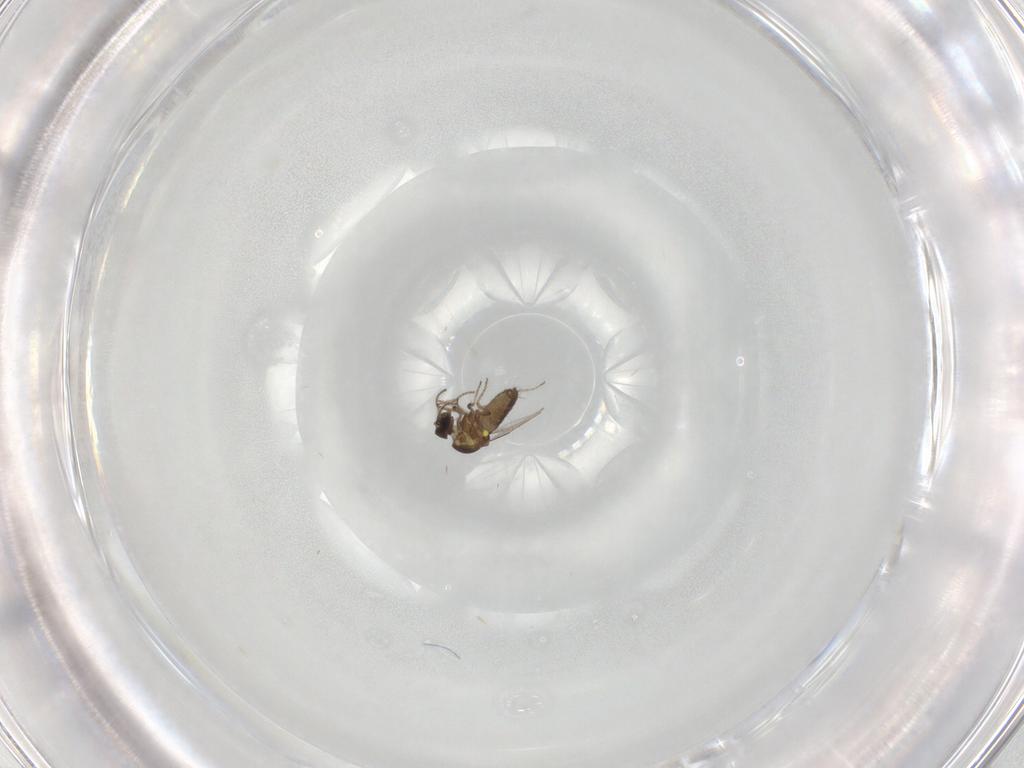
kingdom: Animalia
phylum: Arthropoda
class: Insecta
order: Diptera
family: Ceratopogonidae
